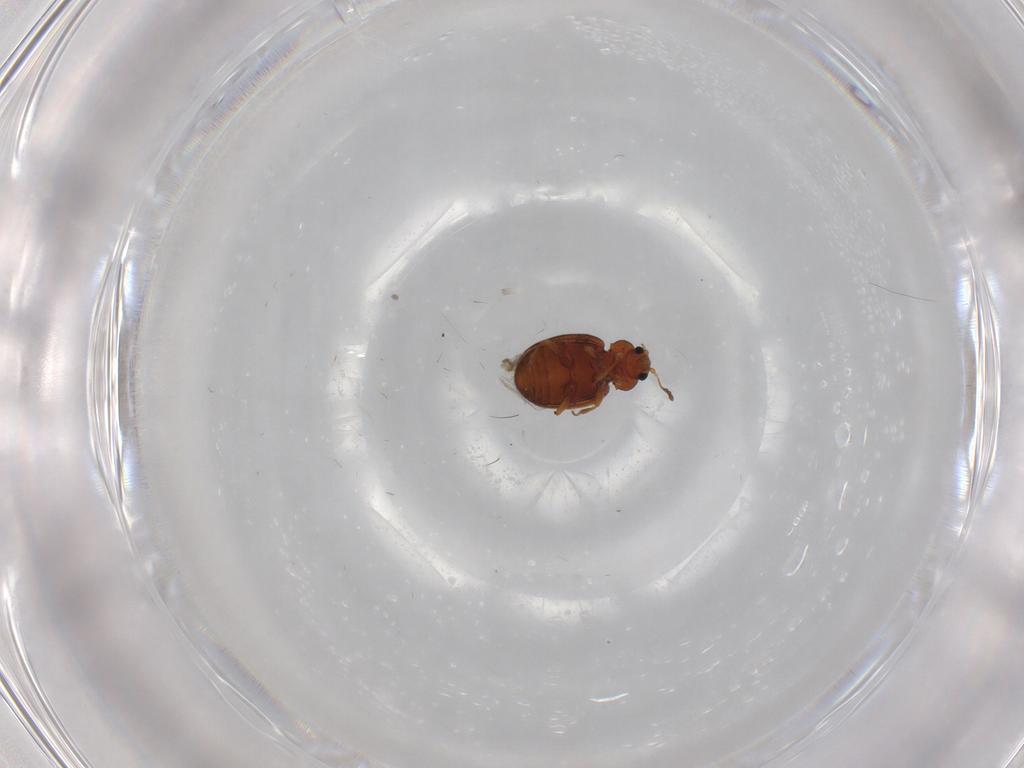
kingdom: Animalia
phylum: Arthropoda
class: Insecta
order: Coleoptera
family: Latridiidae
